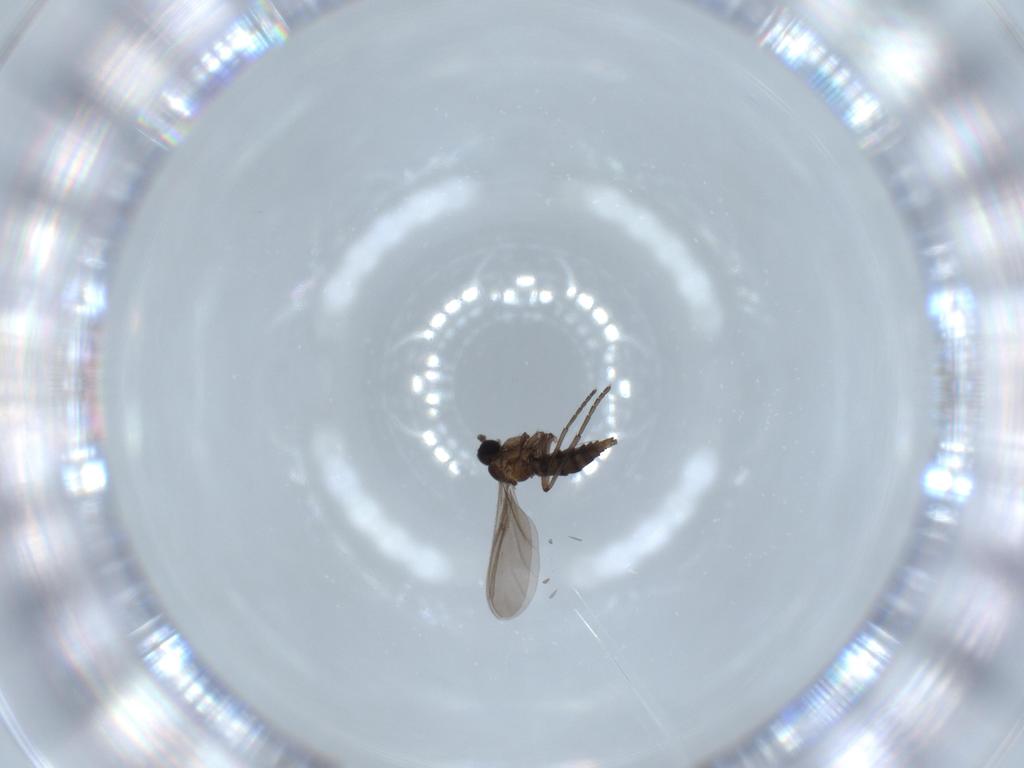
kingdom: Animalia
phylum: Arthropoda
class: Insecta
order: Diptera
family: Sciaridae
